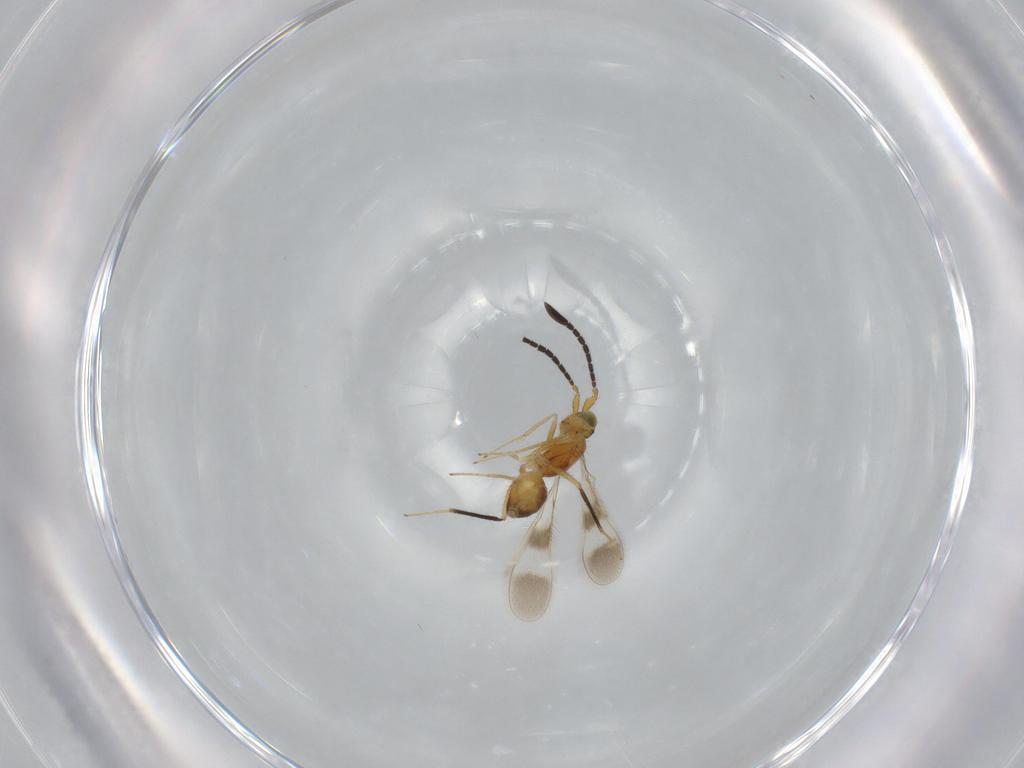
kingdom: Animalia
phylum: Arthropoda
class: Insecta
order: Hymenoptera
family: Mymaridae
